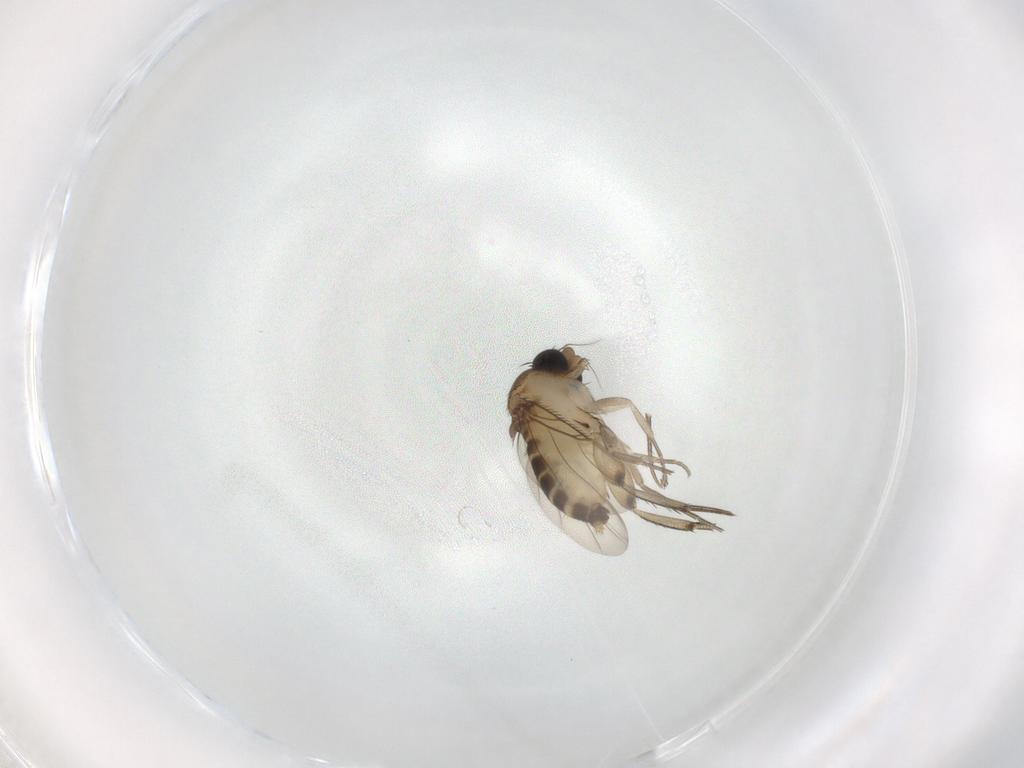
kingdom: Animalia
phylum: Arthropoda
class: Insecta
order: Diptera
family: Phoridae
